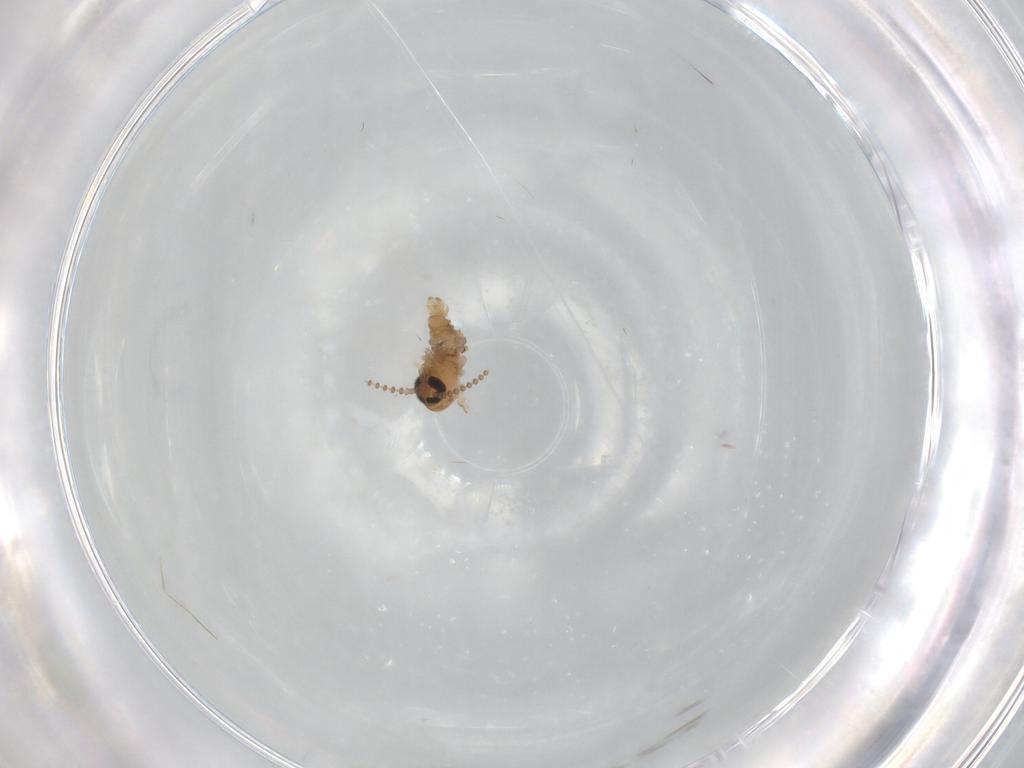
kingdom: Animalia
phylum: Arthropoda
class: Insecta
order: Diptera
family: Psychodidae
